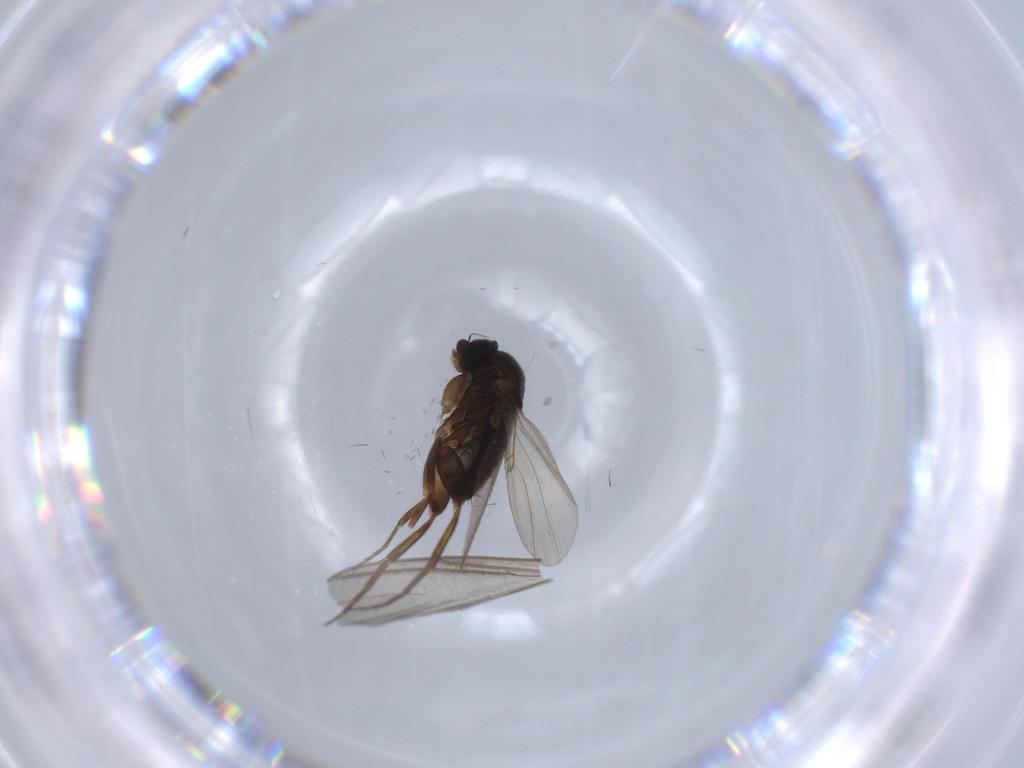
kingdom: Animalia
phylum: Arthropoda
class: Insecta
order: Diptera
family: Phoridae
